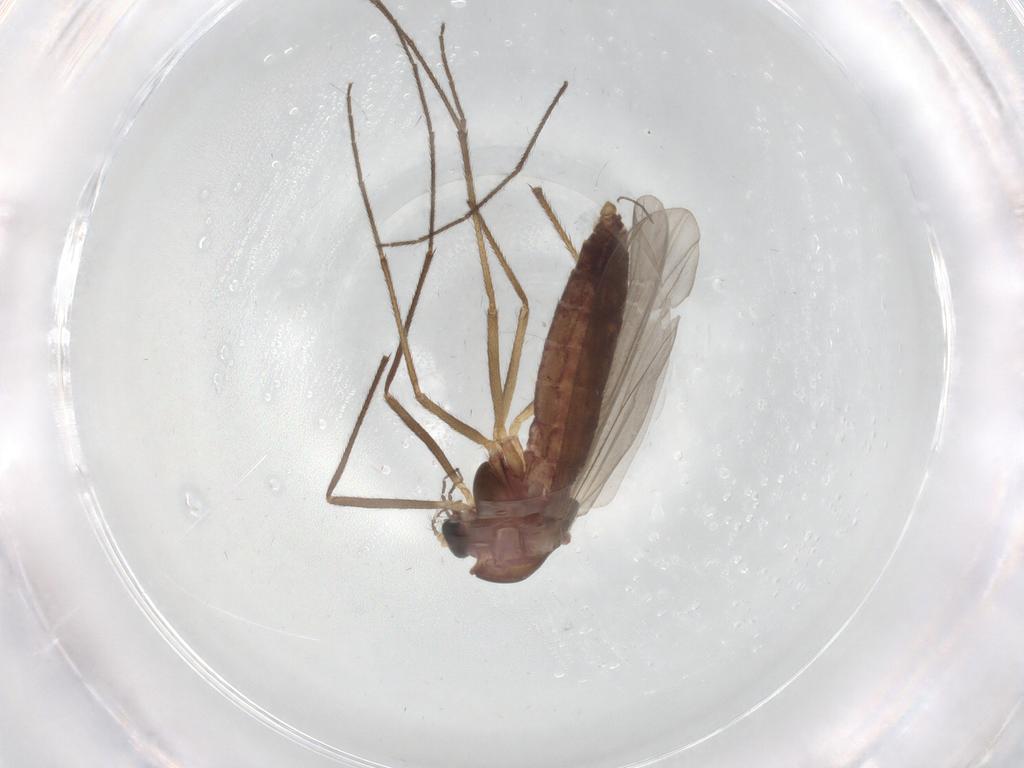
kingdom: Animalia
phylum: Arthropoda
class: Insecta
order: Diptera
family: Chironomidae
